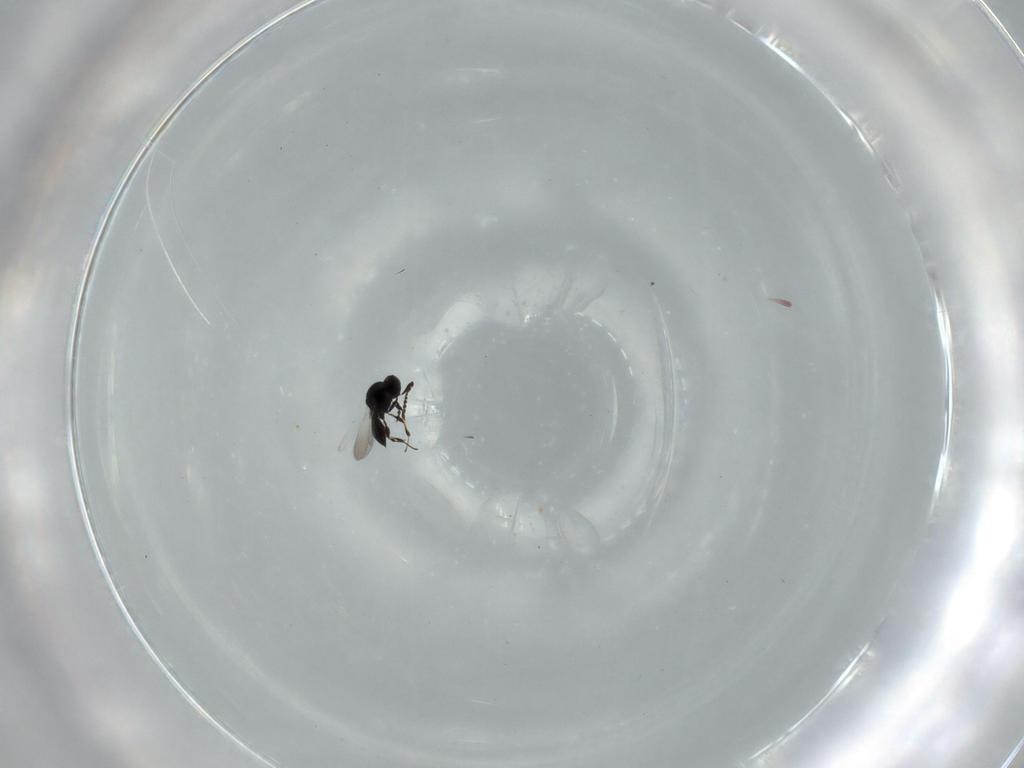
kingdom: Animalia
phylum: Arthropoda
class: Insecta
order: Hymenoptera
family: Platygastridae
